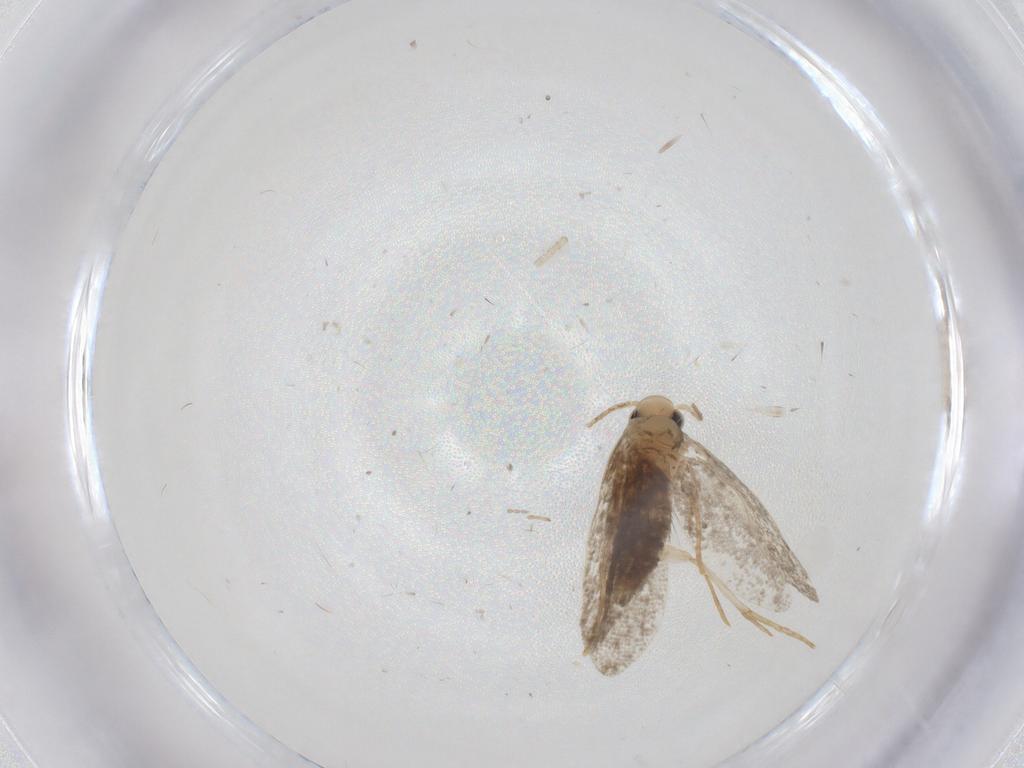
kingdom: Animalia
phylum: Arthropoda
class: Insecta
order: Lepidoptera
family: Psychidae
